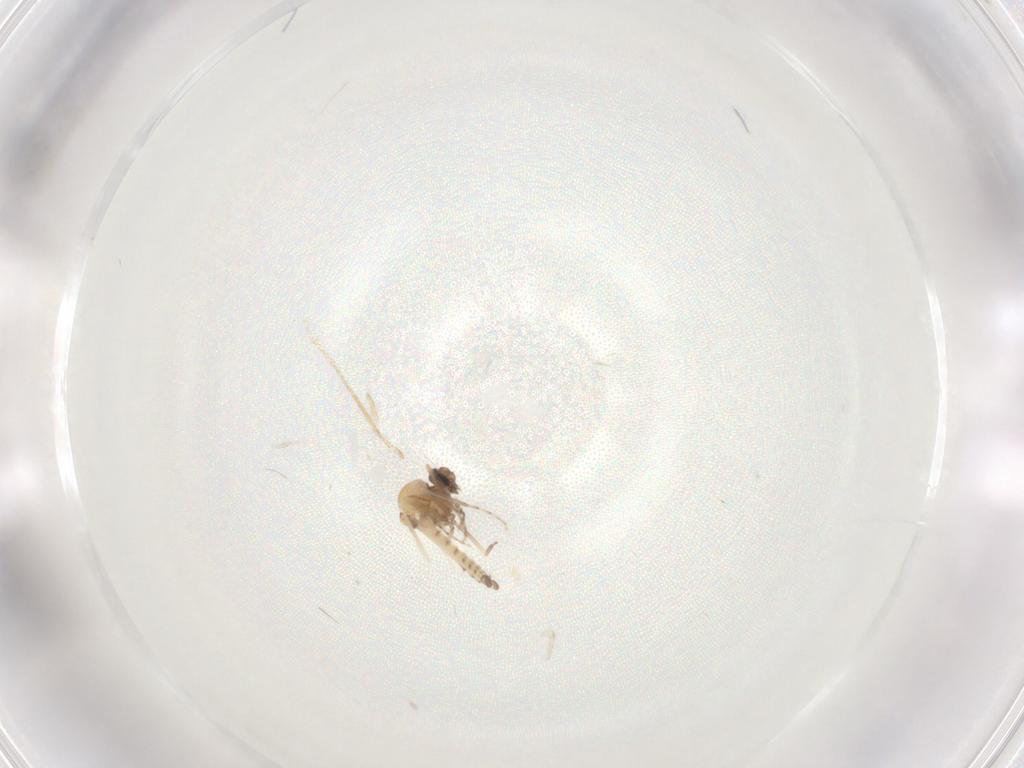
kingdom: Animalia
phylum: Arthropoda
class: Insecta
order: Diptera
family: Ceratopogonidae
